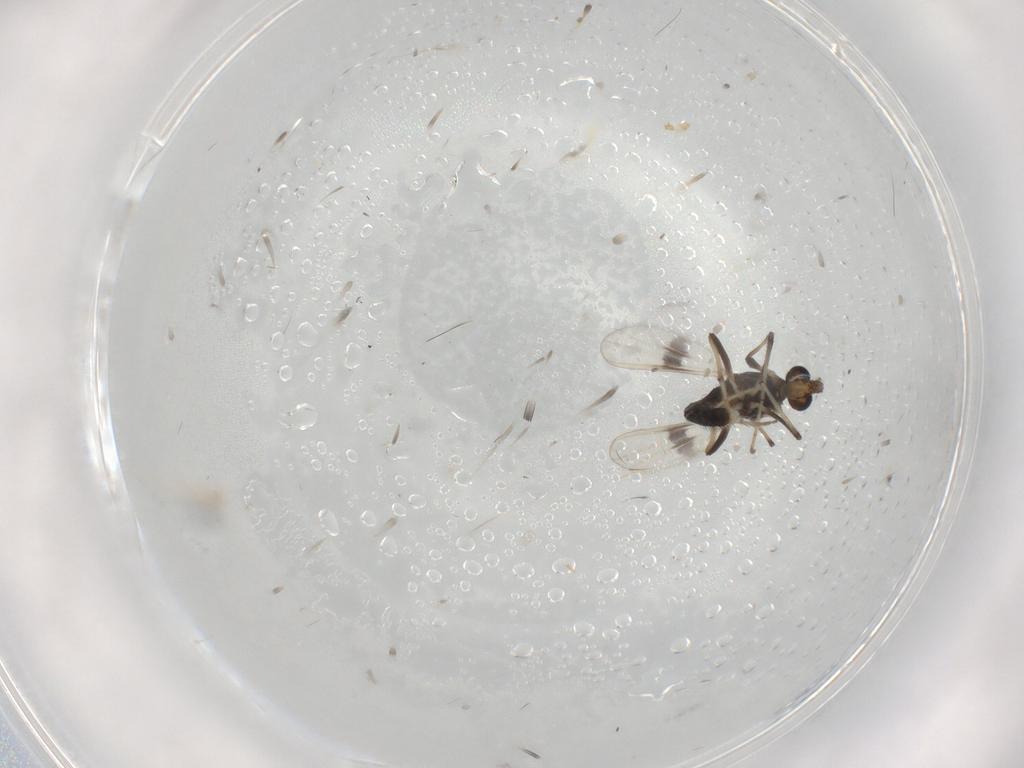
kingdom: Animalia
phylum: Arthropoda
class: Insecta
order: Diptera
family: Chironomidae
